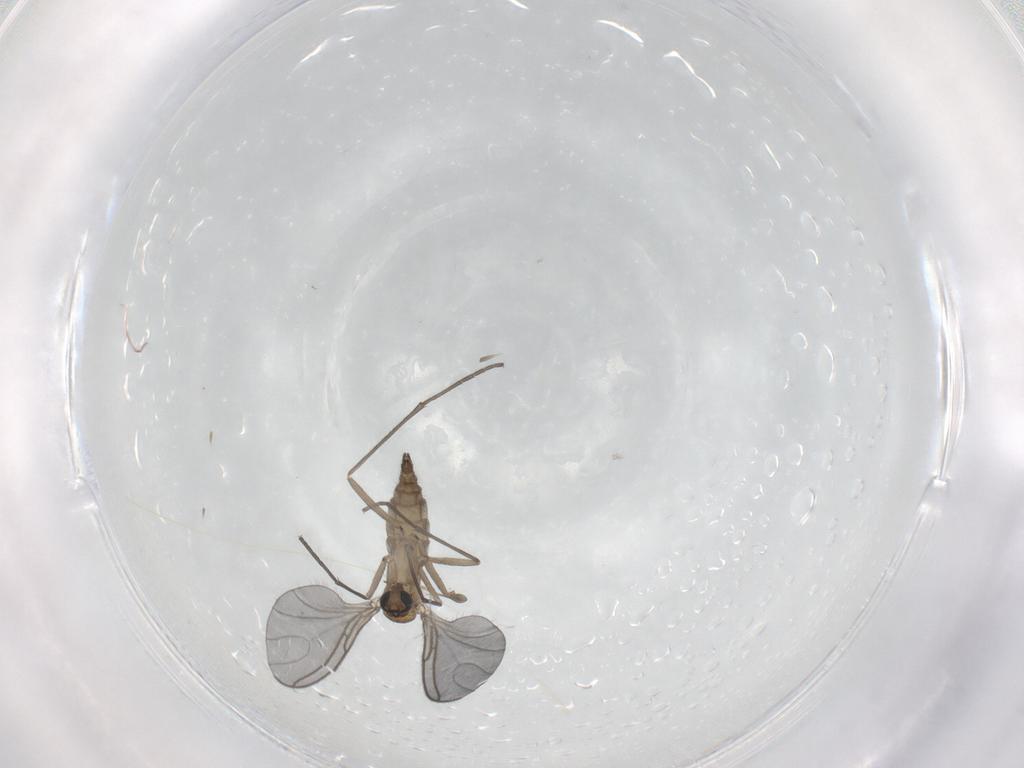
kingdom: Animalia
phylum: Arthropoda
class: Insecta
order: Diptera
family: Sciaridae
